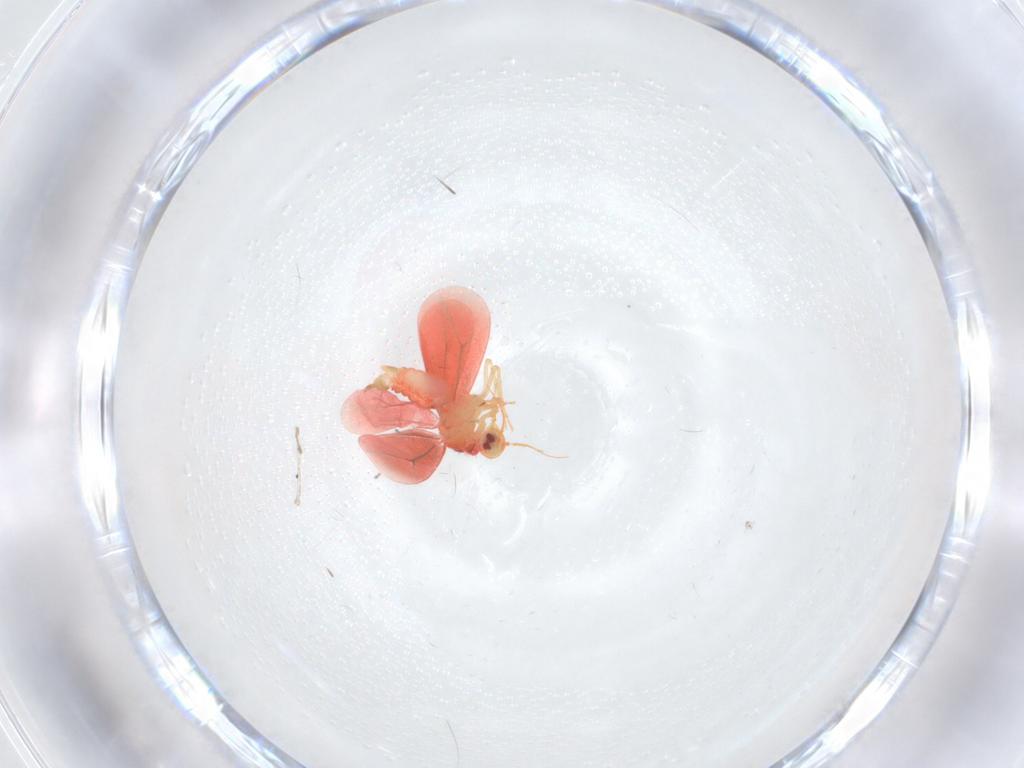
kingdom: Animalia
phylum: Arthropoda
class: Insecta
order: Hemiptera
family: Aleyrodidae
